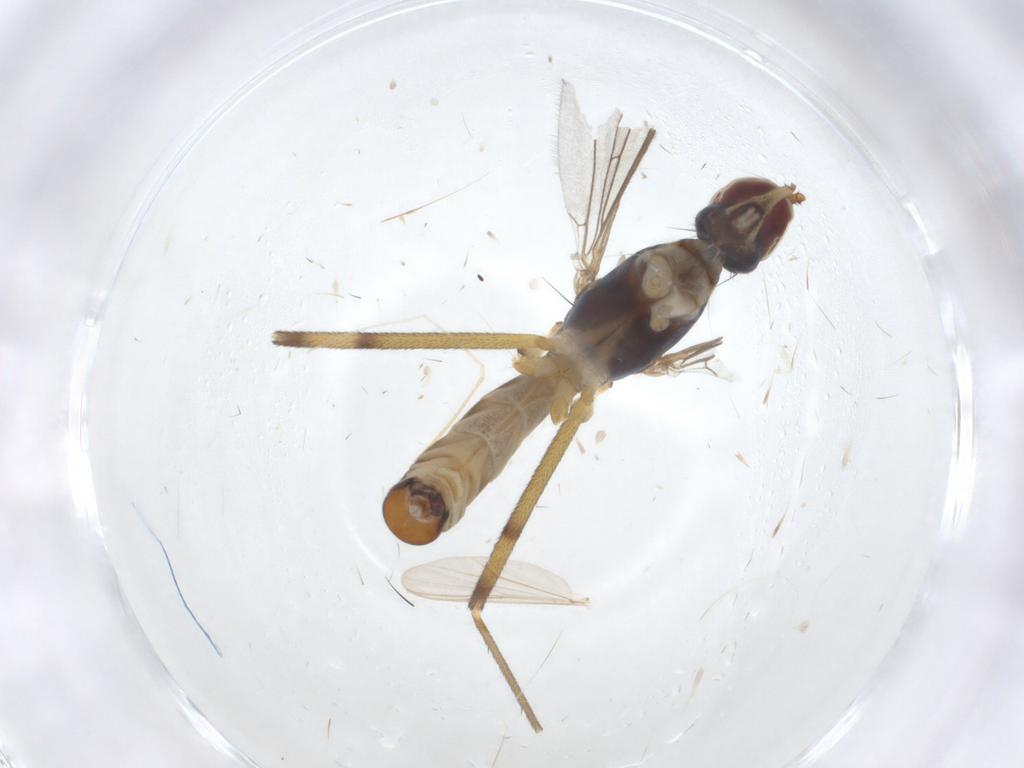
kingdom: Animalia
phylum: Arthropoda
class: Insecta
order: Diptera
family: Micropezidae
